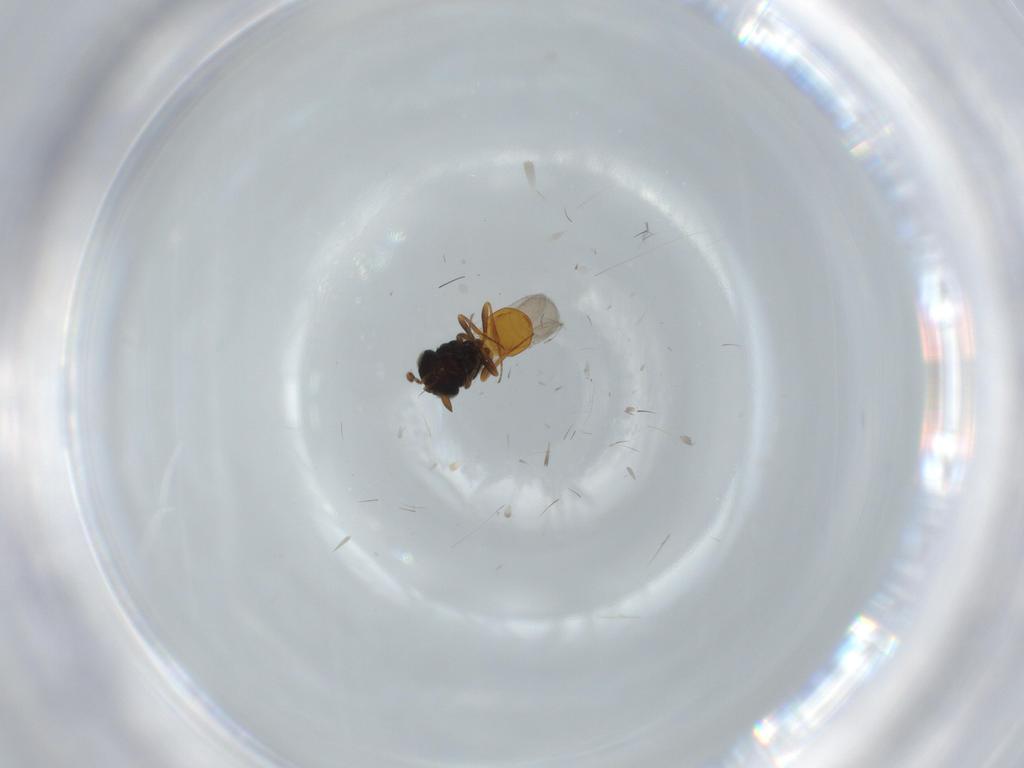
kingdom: Animalia
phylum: Arthropoda
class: Insecta
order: Hymenoptera
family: Scelionidae
